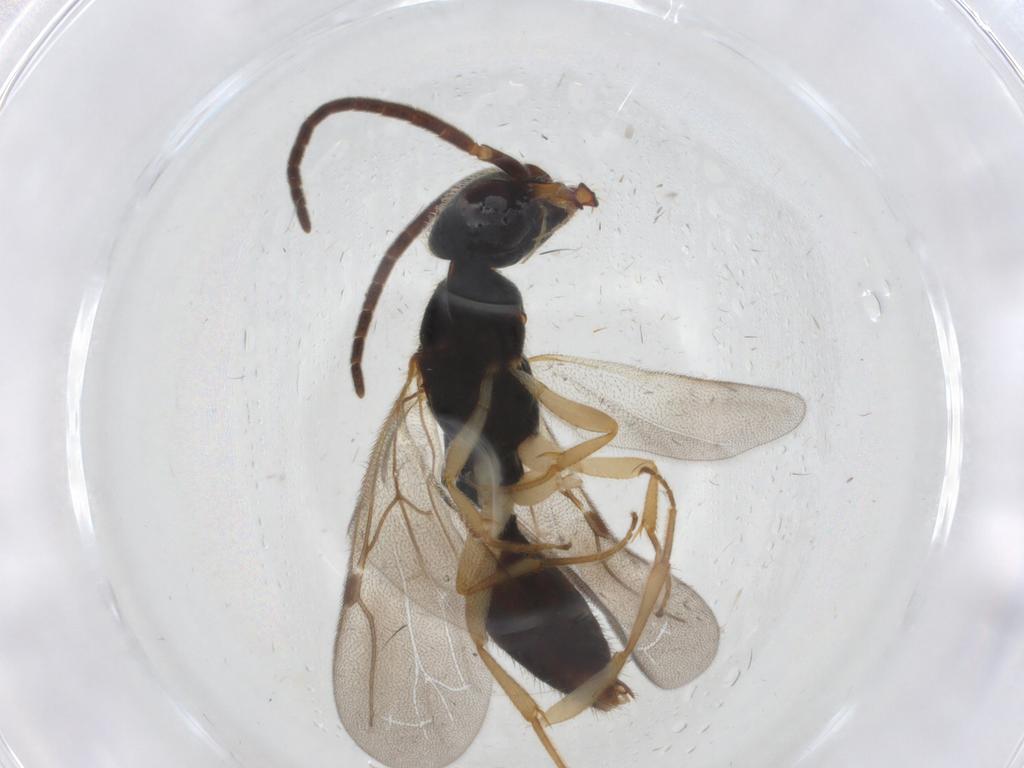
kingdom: Animalia
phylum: Arthropoda
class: Insecta
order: Hymenoptera
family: Bethylidae
